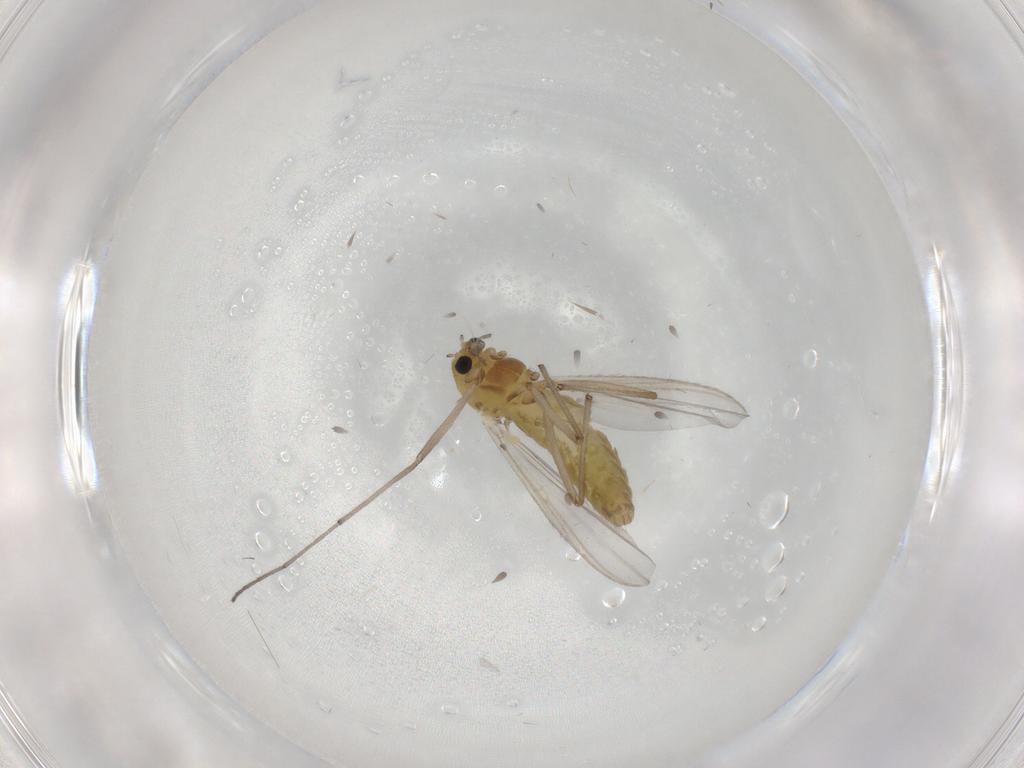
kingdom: Animalia
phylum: Arthropoda
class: Insecta
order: Diptera
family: Chironomidae
